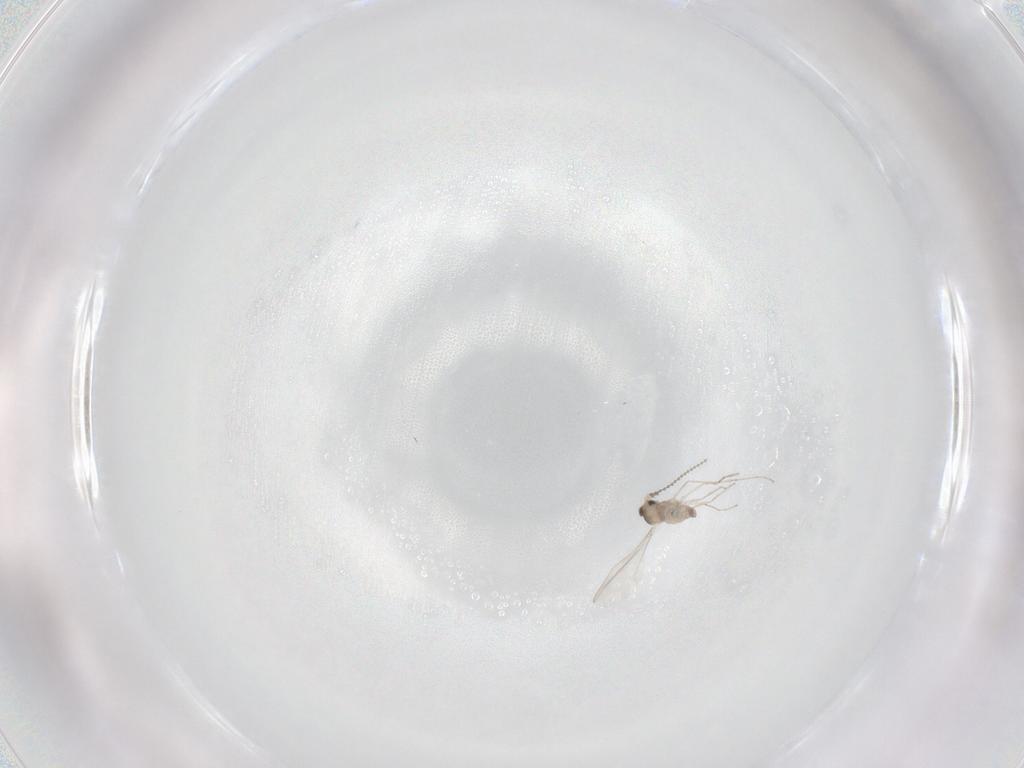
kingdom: Animalia
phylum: Arthropoda
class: Insecta
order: Diptera
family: Cecidomyiidae
